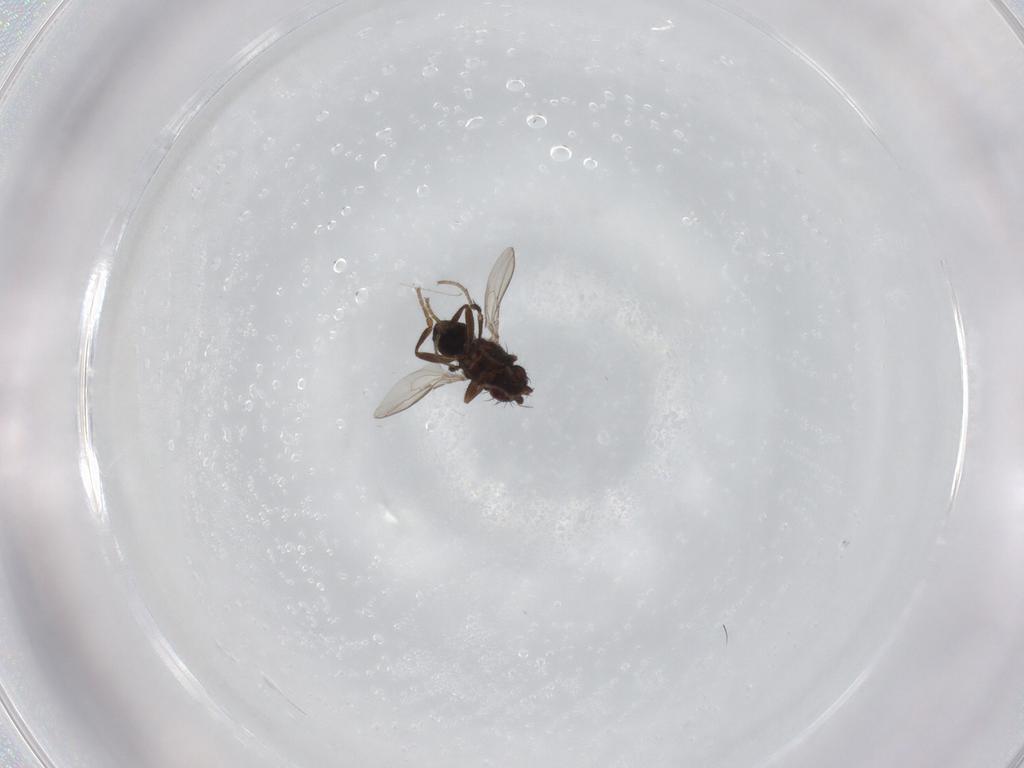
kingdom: Animalia
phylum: Arthropoda
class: Insecta
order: Diptera
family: Sphaeroceridae
